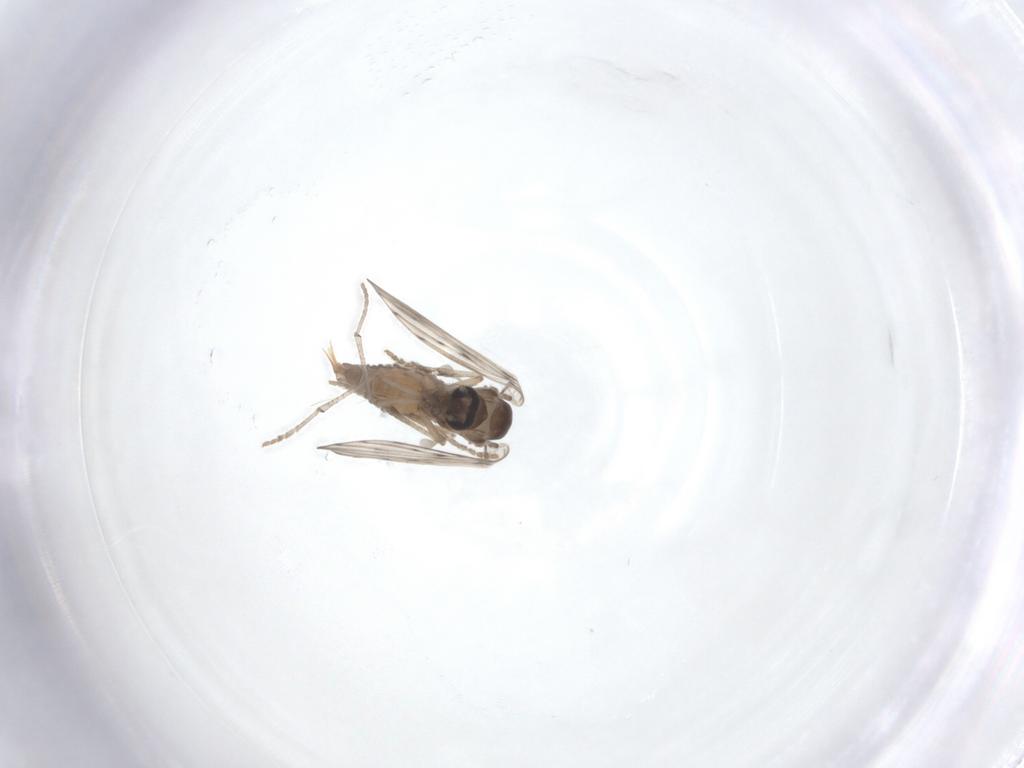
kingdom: Animalia
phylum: Arthropoda
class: Insecta
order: Diptera
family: Psychodidae
